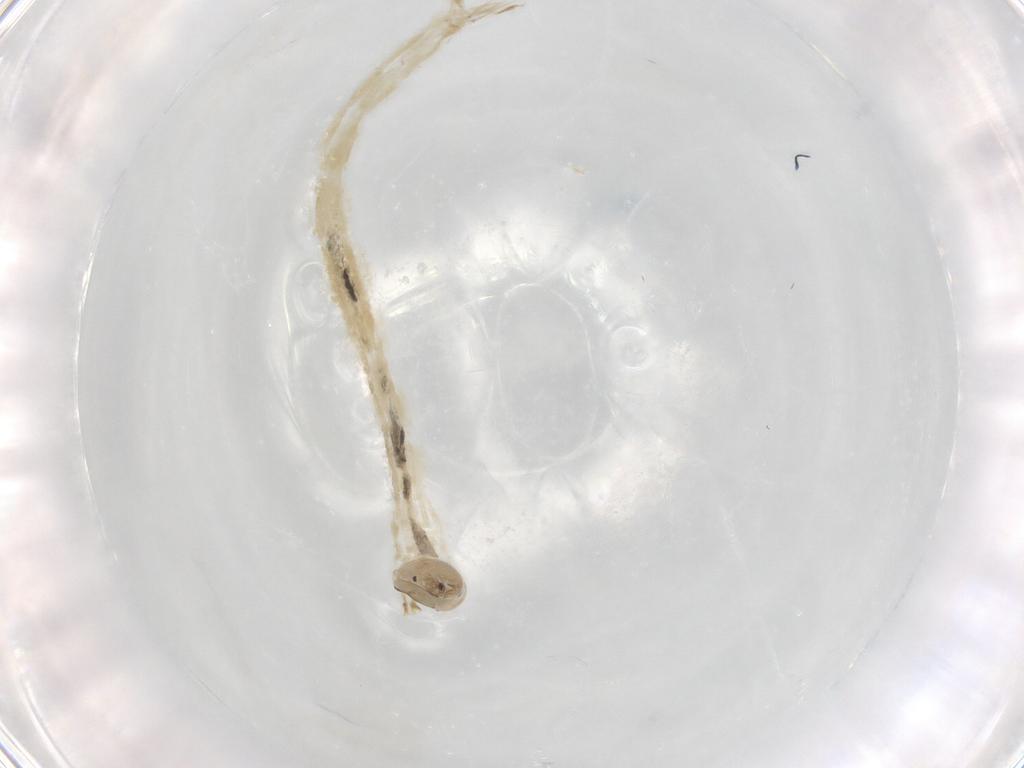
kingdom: Animalia
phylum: Arthropoda
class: Insecta
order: Diptera
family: Chironomidae
